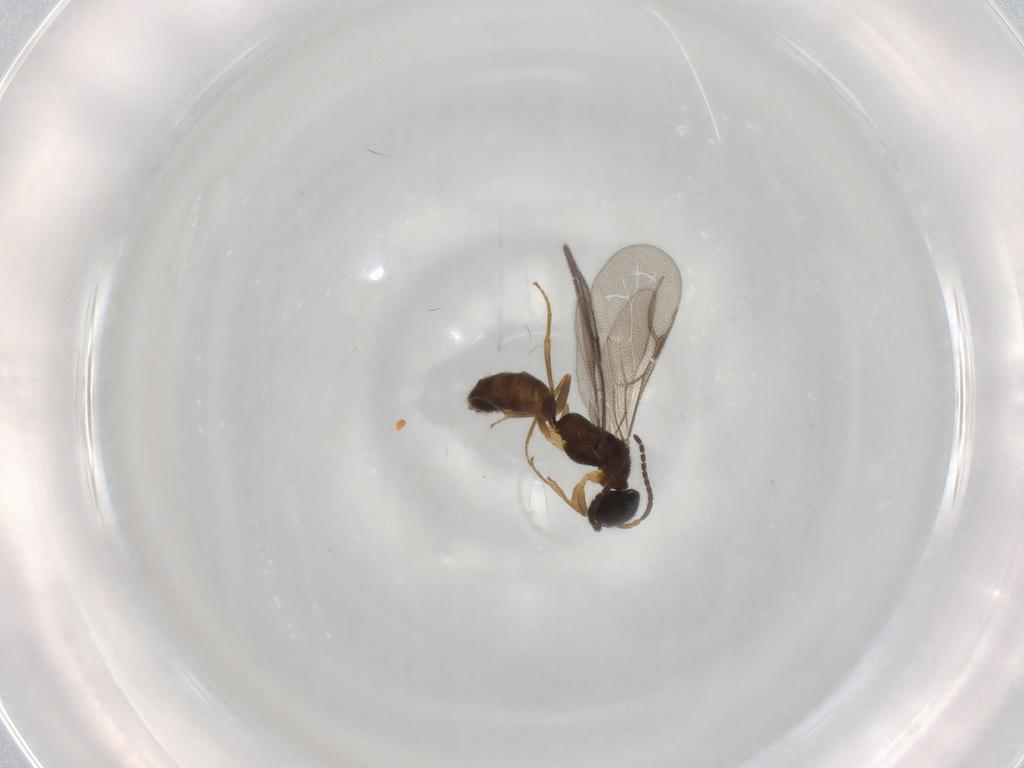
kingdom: Animalia
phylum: Arthropoda
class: Insecta
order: Hymenoptera
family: Bethylidae
